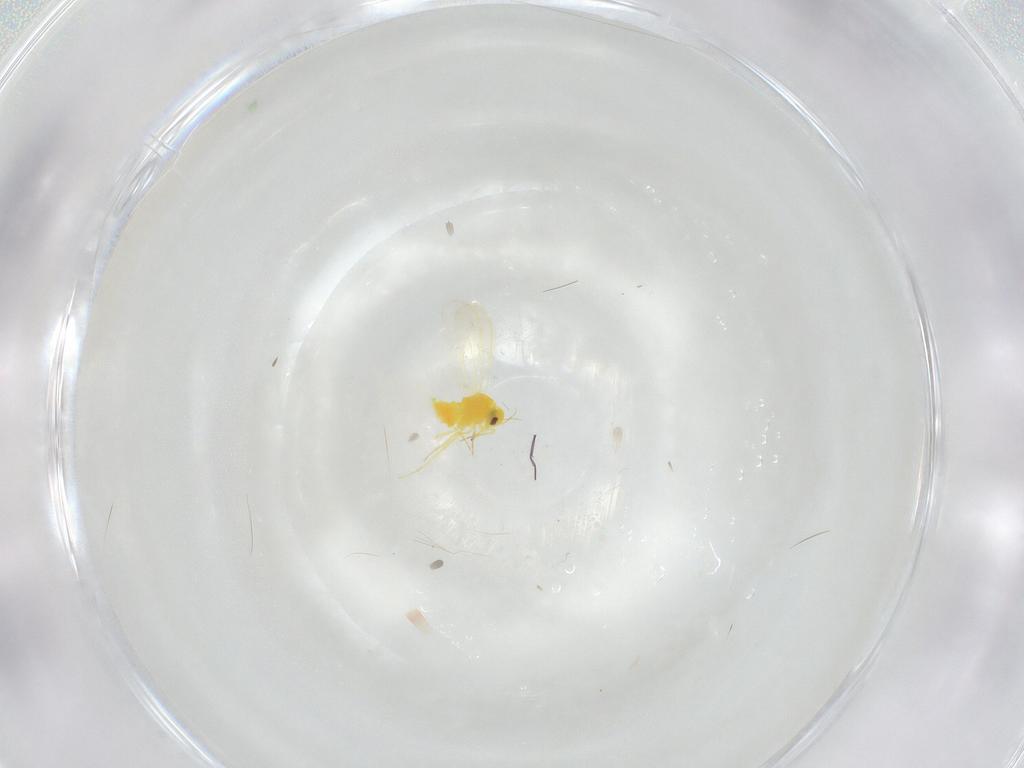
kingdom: Animalia
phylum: Arthropoda
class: Insecta
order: Hemiptera
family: Aleyrodidae
